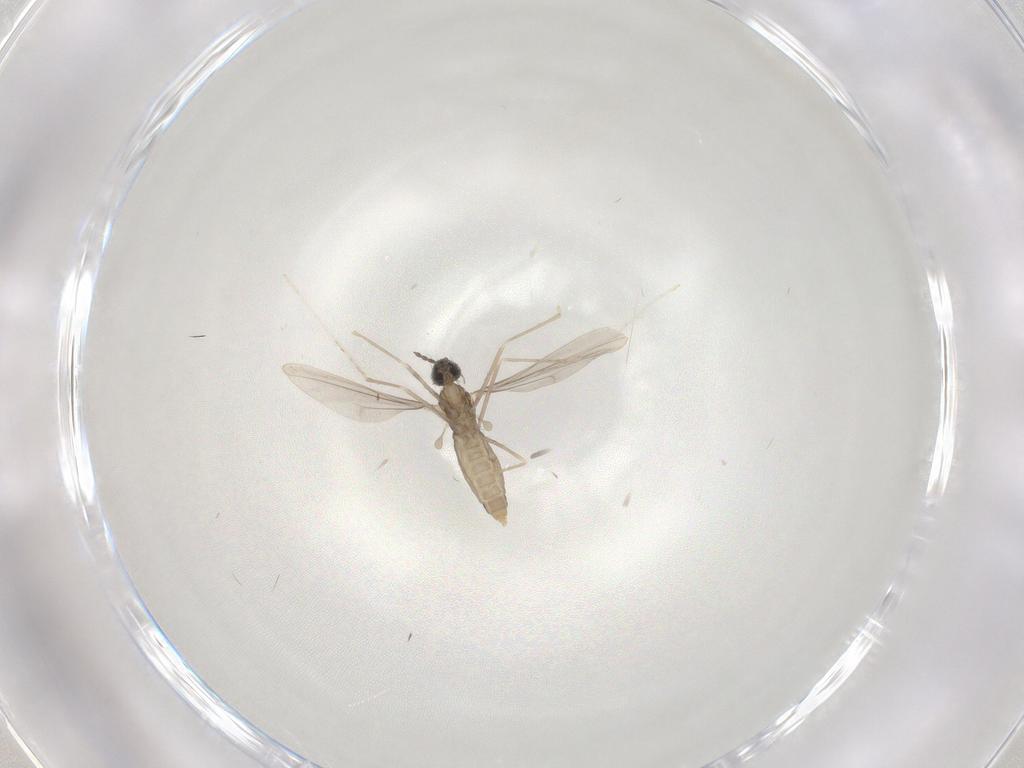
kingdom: Animalia
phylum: Arthropoda
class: Insecta
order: Diptera
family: Cecidomyiidae
